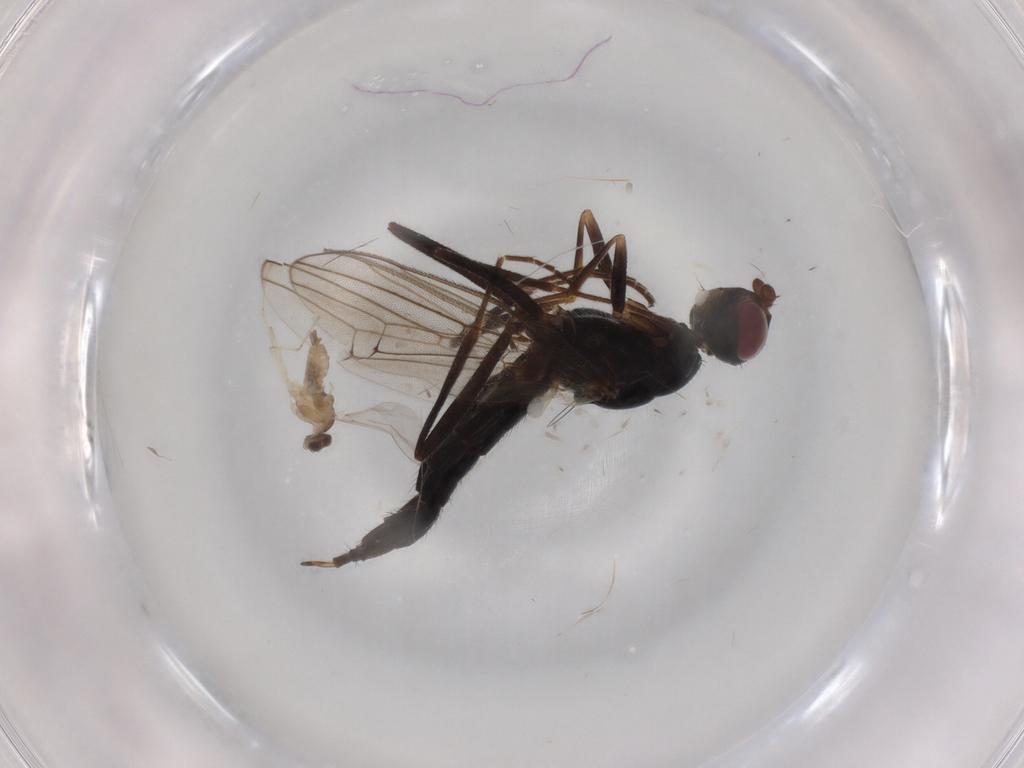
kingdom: Animalia
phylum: Arthropoda
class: Insecta
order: Diptera
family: Cecidomyiidae
